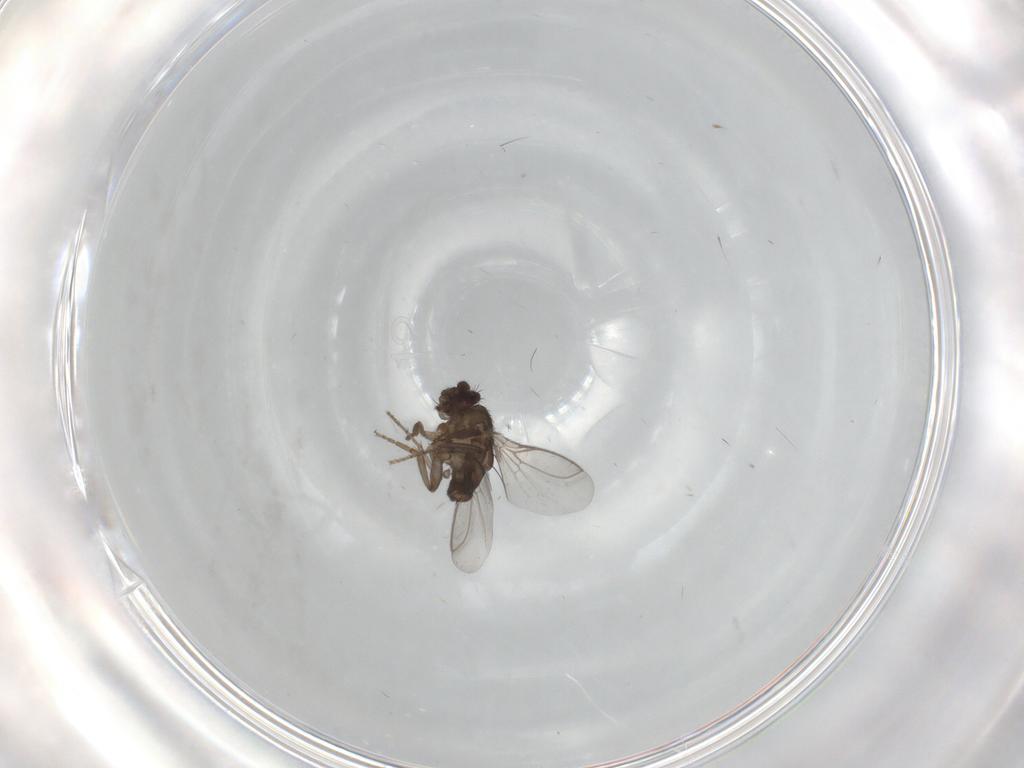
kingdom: Animalia
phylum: Arthropoda
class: Insecta
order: Diptera
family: Sphaeroceridae
